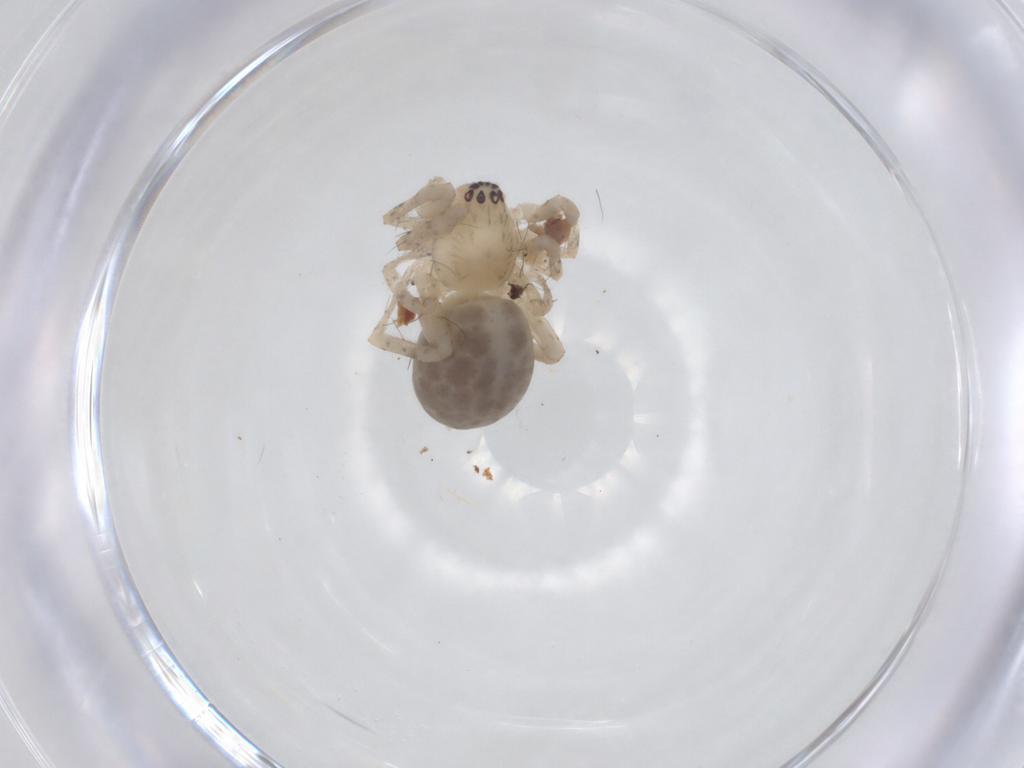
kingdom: Animalia
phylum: Arthropoda
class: Arachnida
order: Araneae
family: Anyphaenidae
